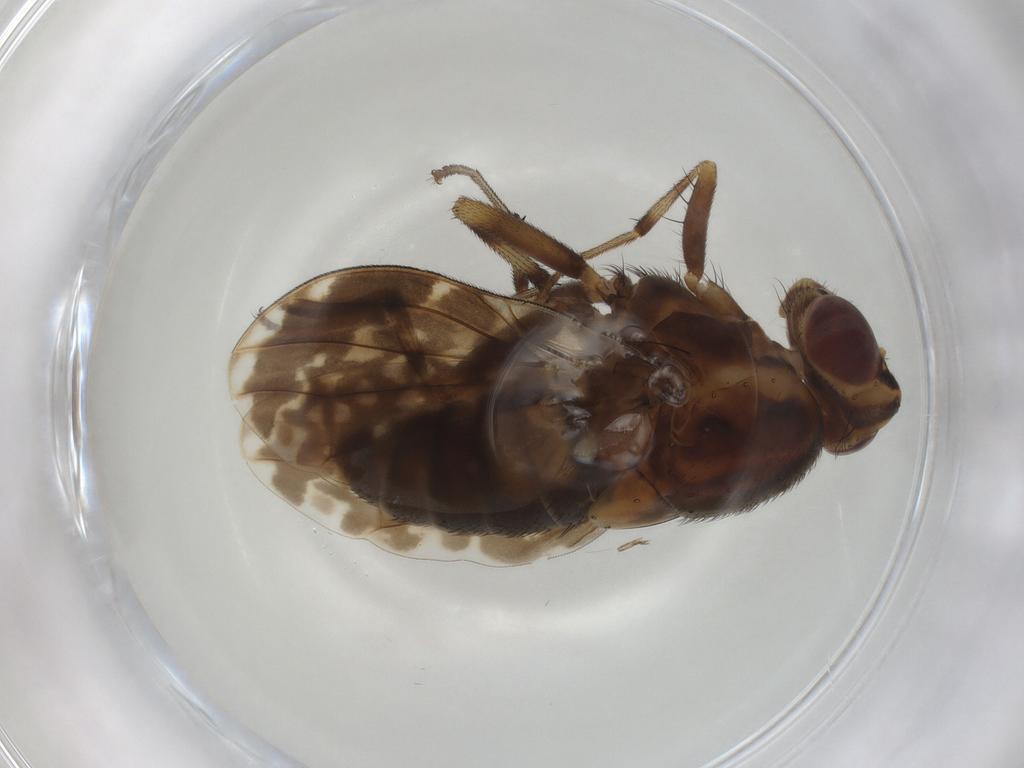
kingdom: Animalia
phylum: Arthropoda
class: Insecta
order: Diptera
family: Lauxaniidae
